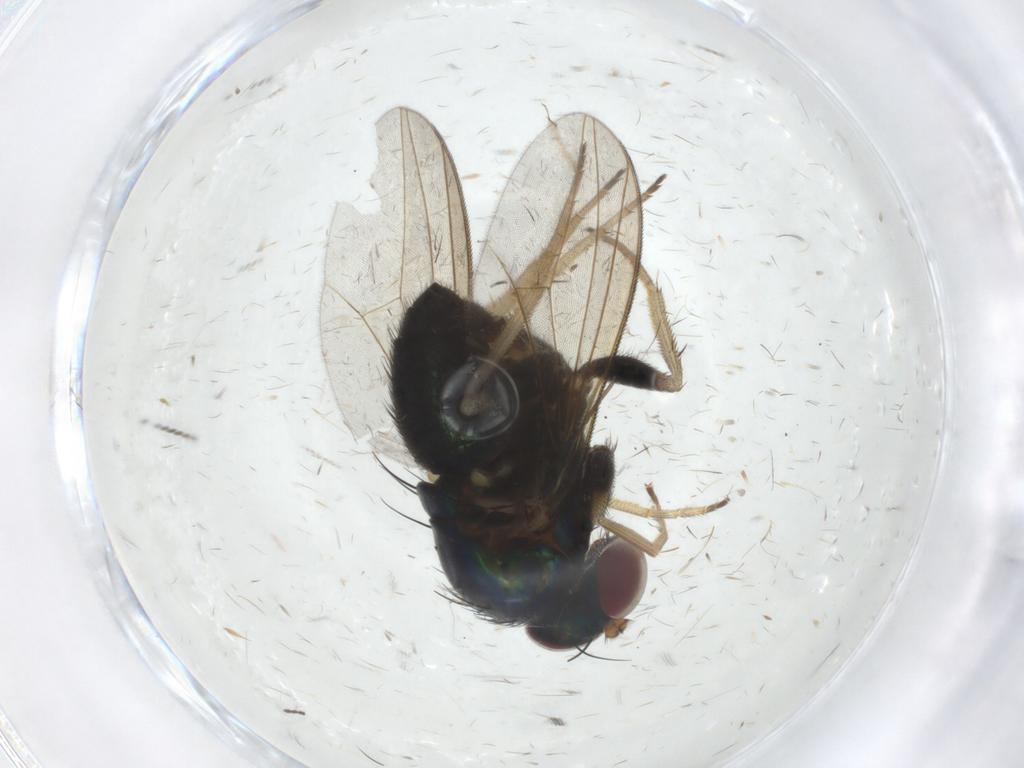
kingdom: Animalia
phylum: Arthropoda
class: Insecta
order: Diptera
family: Dolichopodidae
